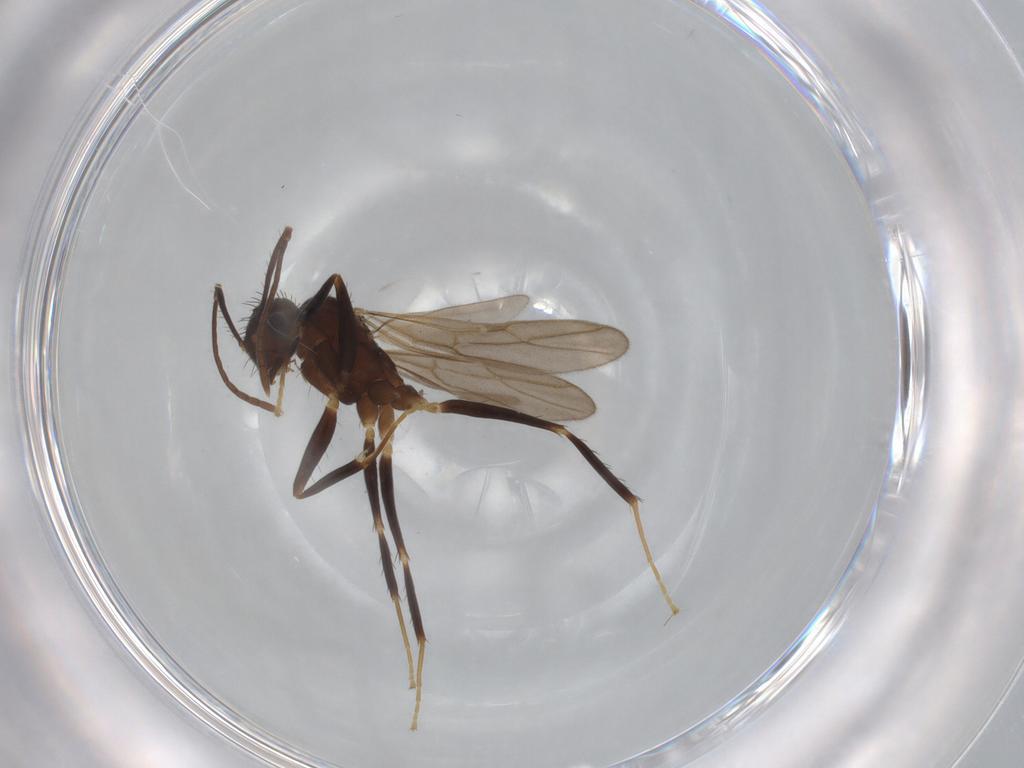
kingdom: Animalia
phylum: Arthropoda
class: Insecta
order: Hymenoptera
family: Formicidae
